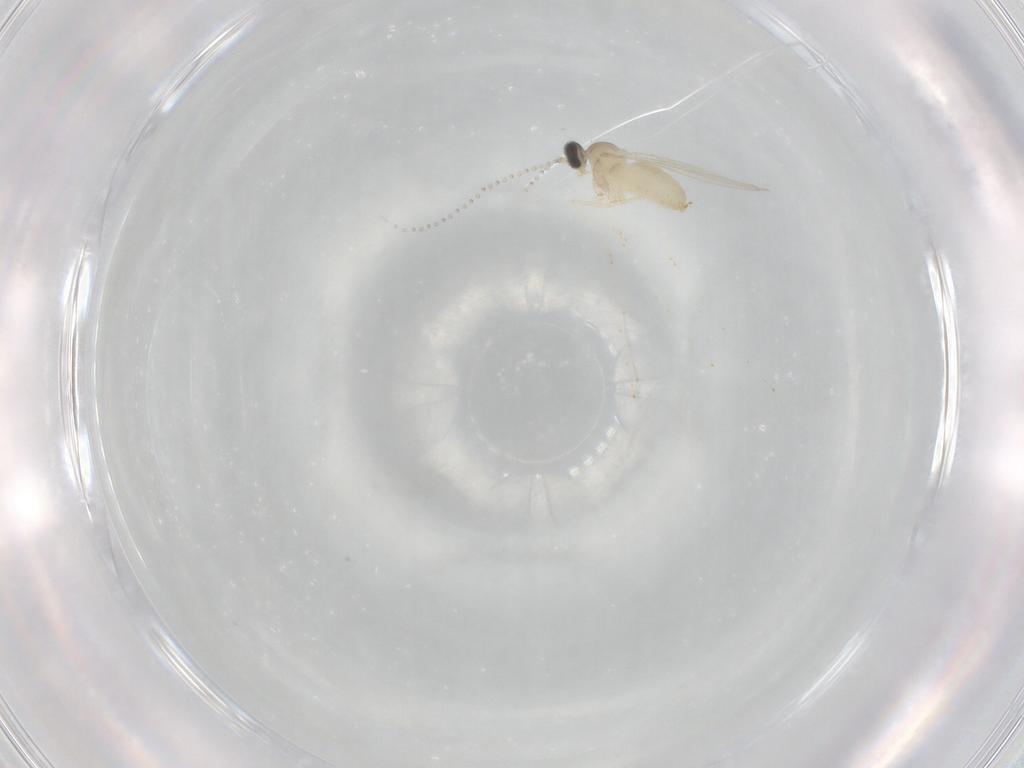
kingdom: Animalia
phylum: Arthropoda
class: Insecta
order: Diptera
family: Cecidomyiidae
